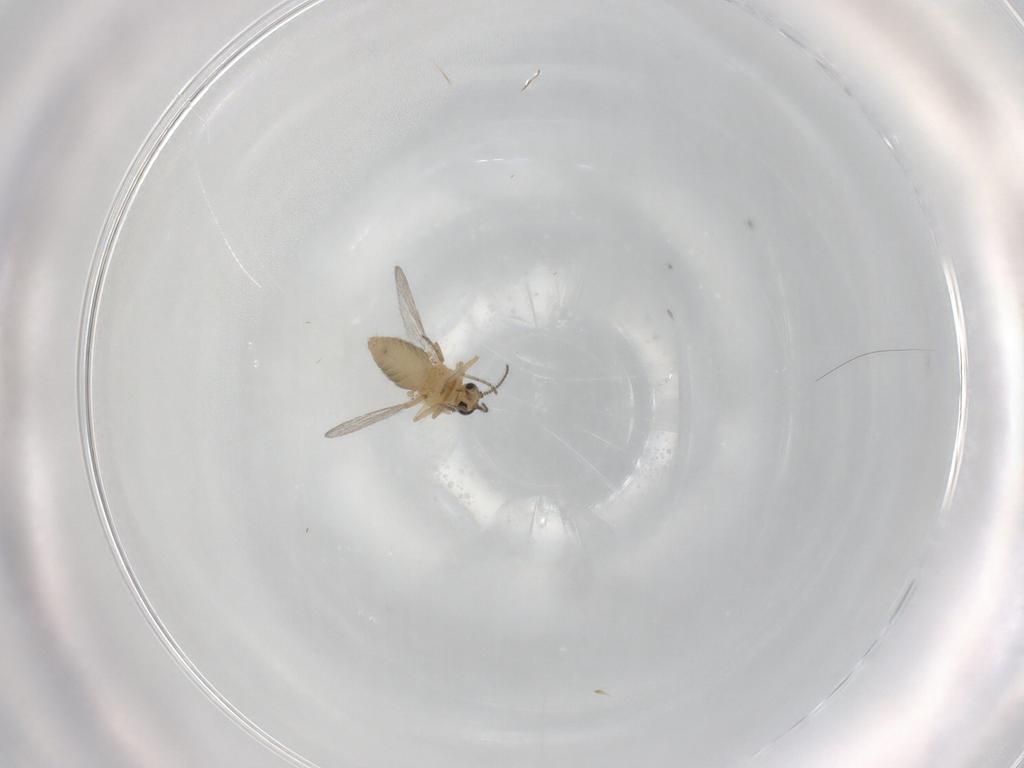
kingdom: Animalia
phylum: Arthropoda
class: Insecta
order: Diptera
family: Ceratopogonidae
